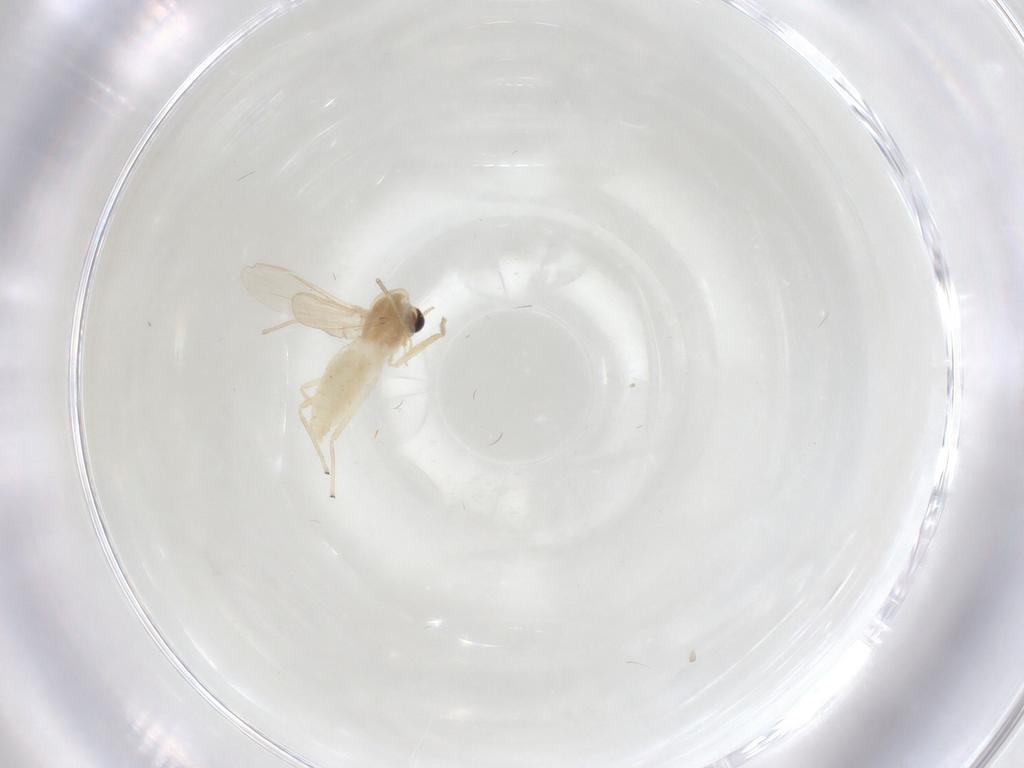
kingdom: Animalia
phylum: Arthropoda
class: Insecta
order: Diptera
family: Chironomidae
